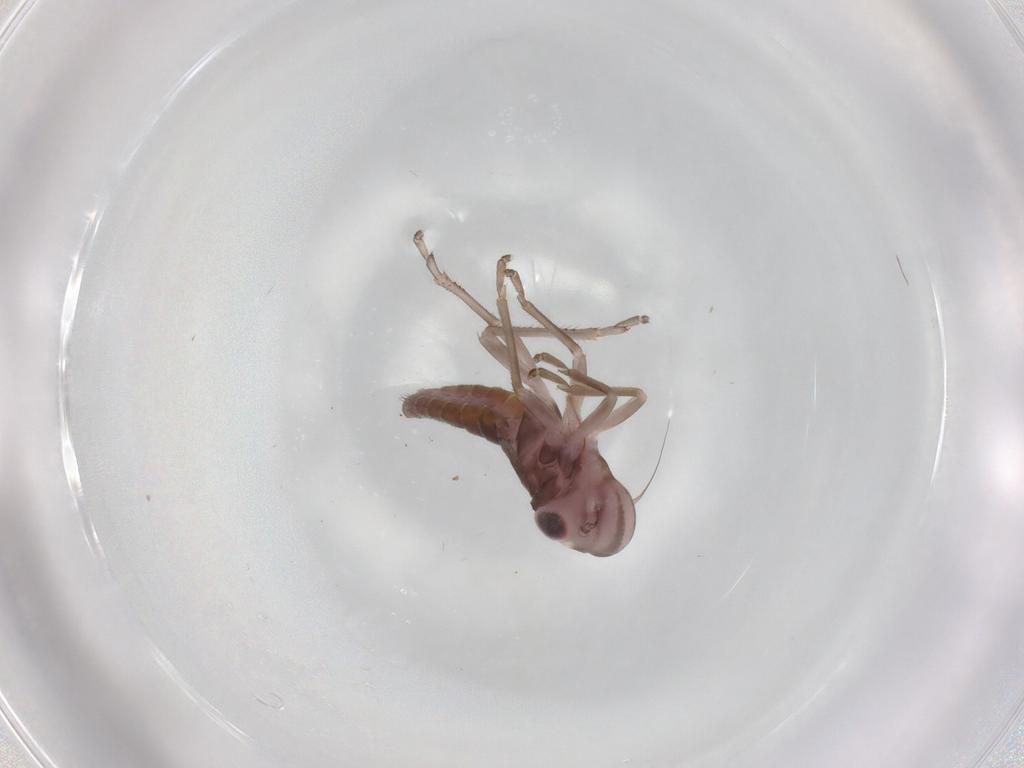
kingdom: Animalia
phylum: Arthropoda
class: Insecta
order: Hemiptera
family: Cicadellidae
